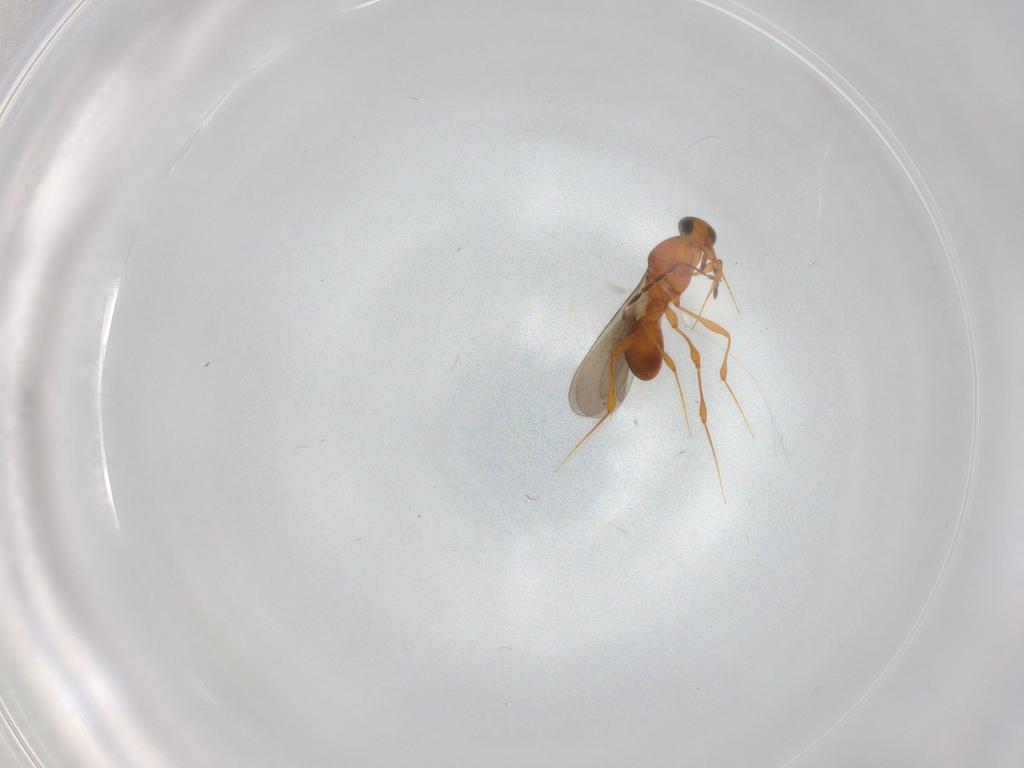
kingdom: Animalia
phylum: Arthropoda
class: Insecta
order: Hymenoptera
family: Platygastridae
